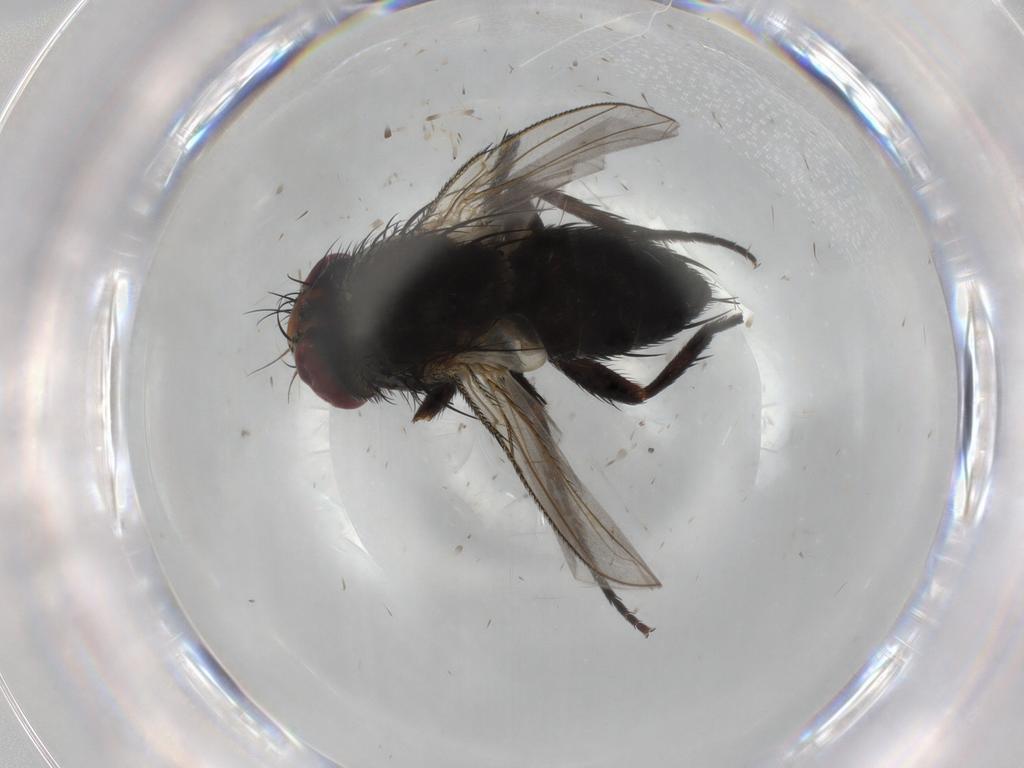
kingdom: Animalia
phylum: Arthropoda
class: Insecta
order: Diptera
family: Tachinidae
